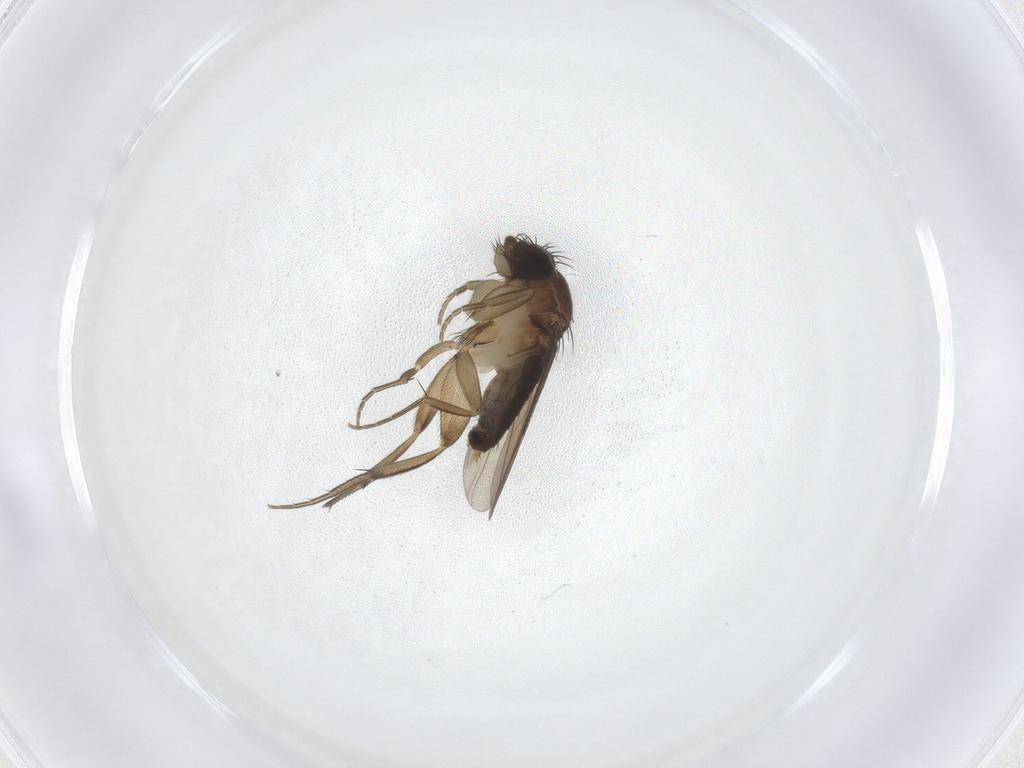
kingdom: Animalia
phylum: Arthropoda
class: Insecta
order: Diptera
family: Phoridae
